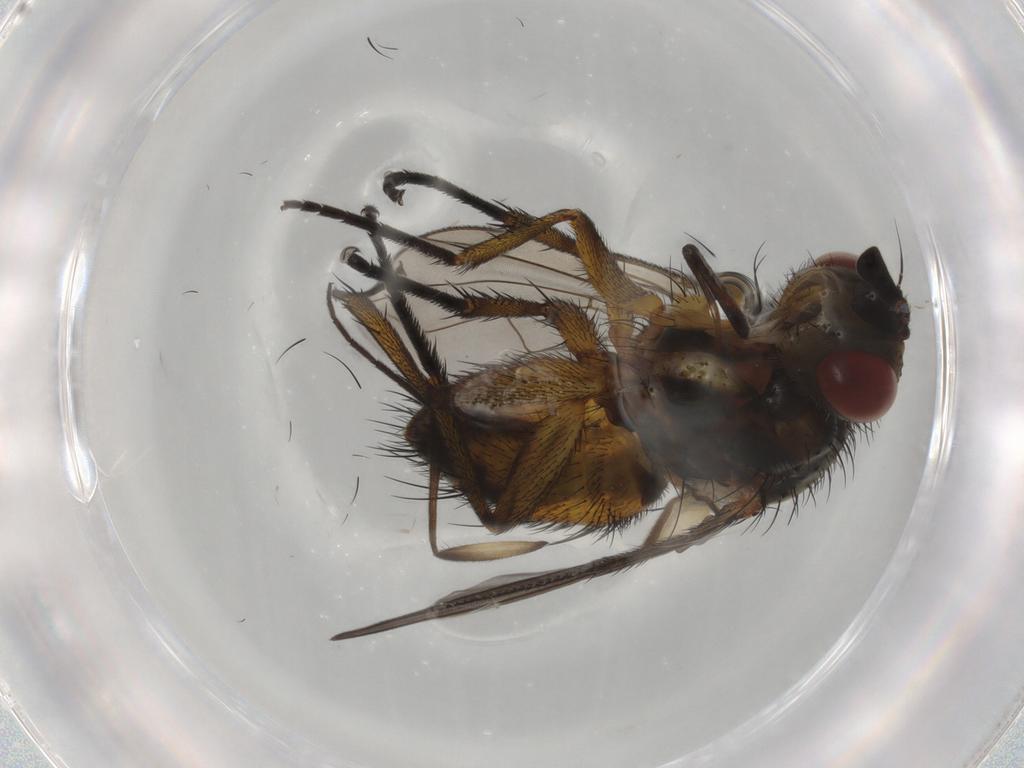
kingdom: Animalia
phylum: Arthropoda
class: Insecta
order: Diptera
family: Tachinidae
